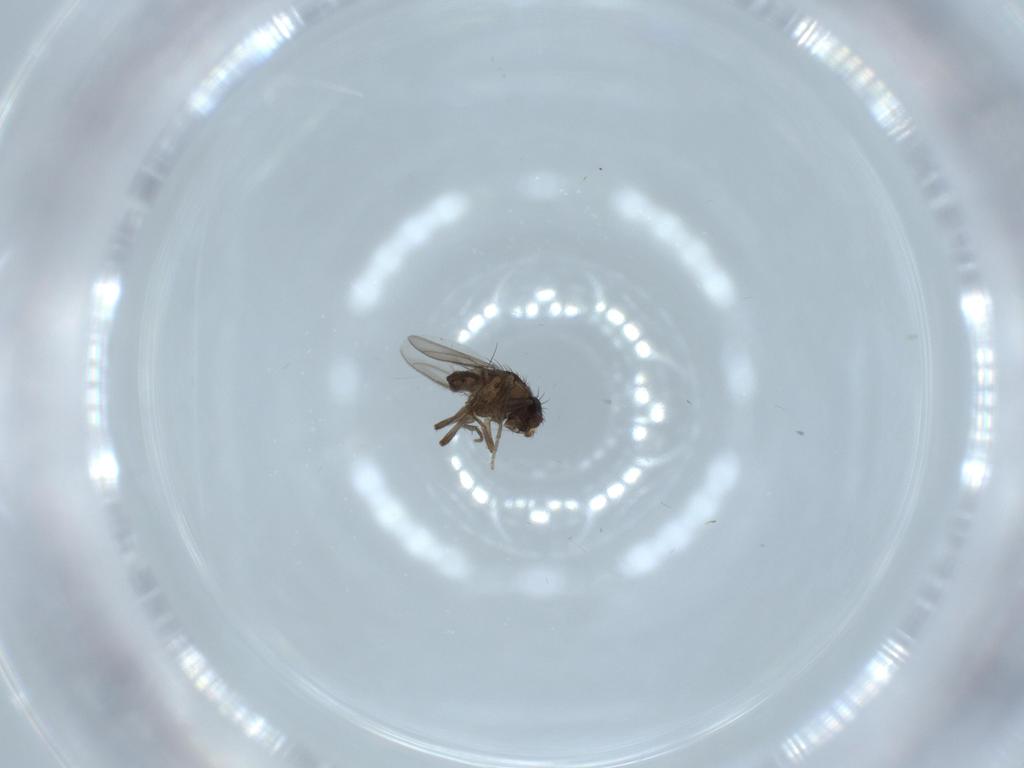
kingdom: Animalia
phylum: Arthropoda
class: Insecta
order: Diptera
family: Sphaeroceridae
